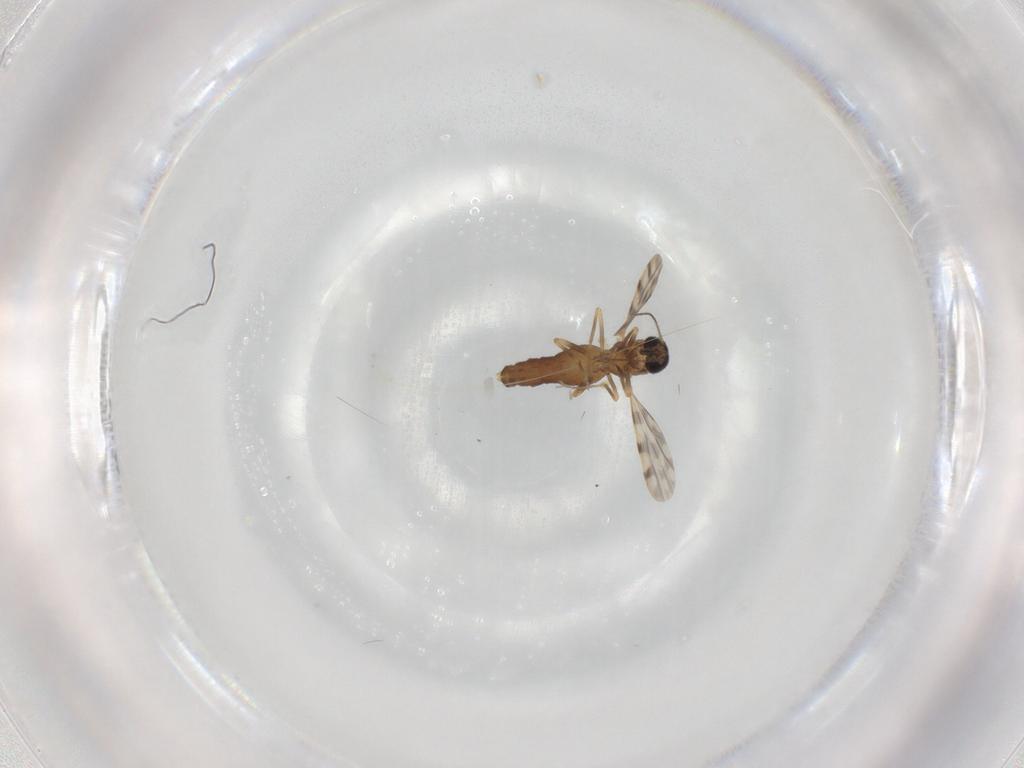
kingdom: Animalia
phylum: Arthropoda
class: Insecta
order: Diptera
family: Ceratopogonidae
